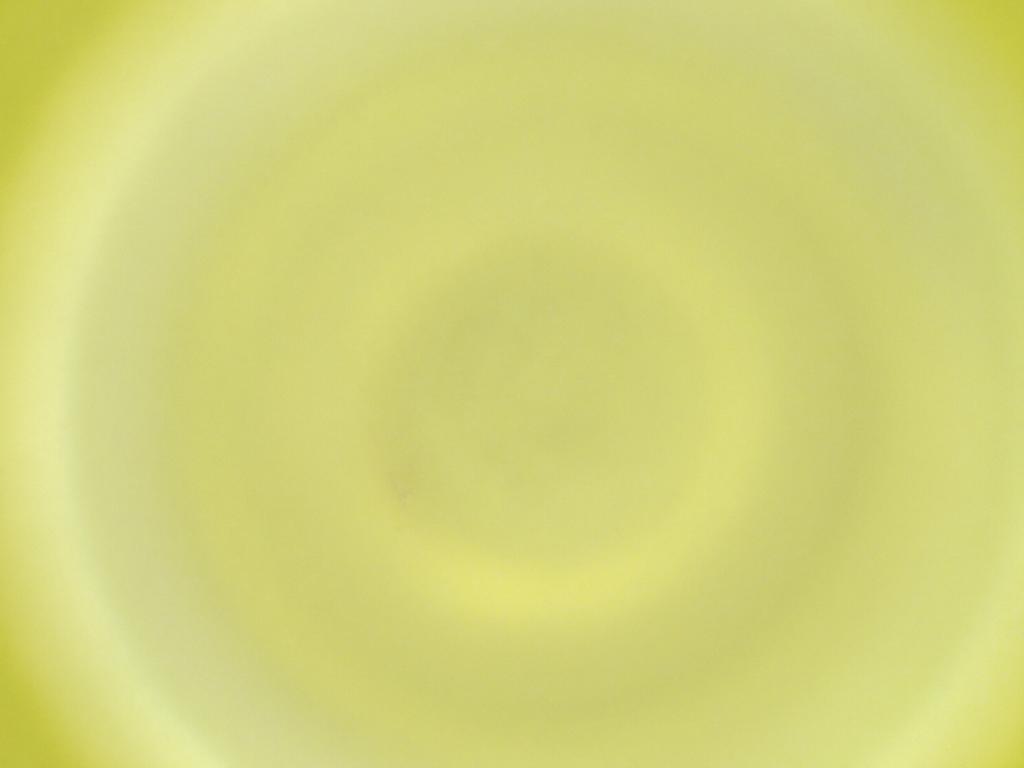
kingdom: Animalia
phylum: Arthropoda
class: Insecta
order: Diptera
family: Cecidomyiidae
